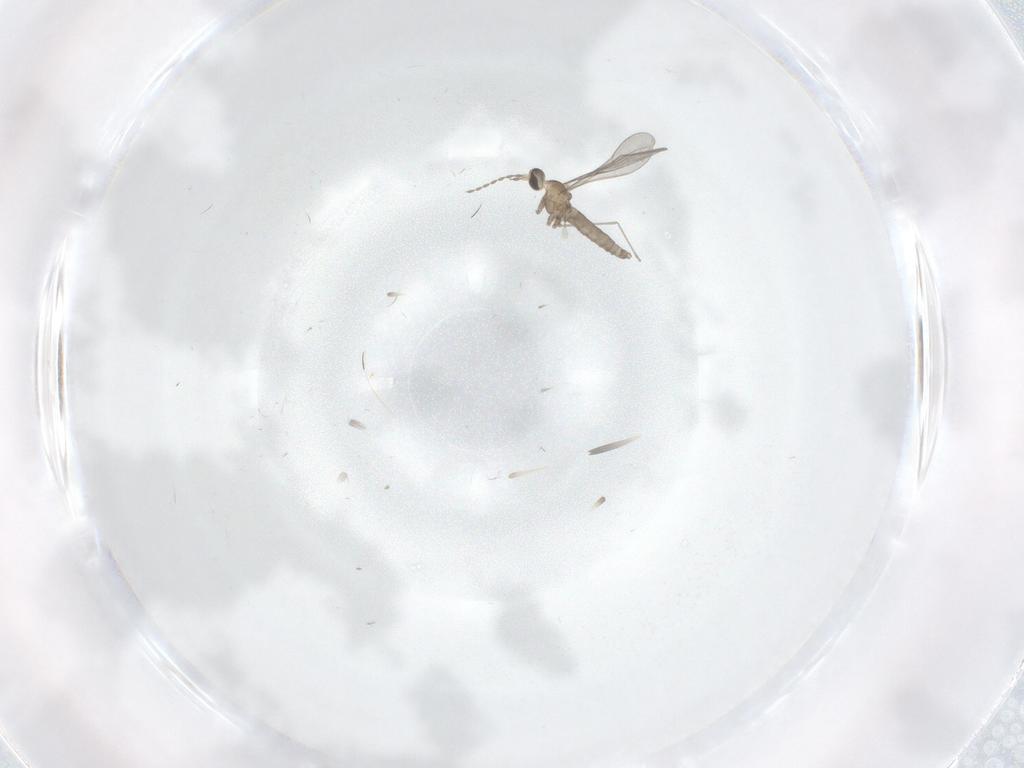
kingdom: Animalia
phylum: Arthropoda
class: Insecta
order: Diptera
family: Cecidomyiidae
